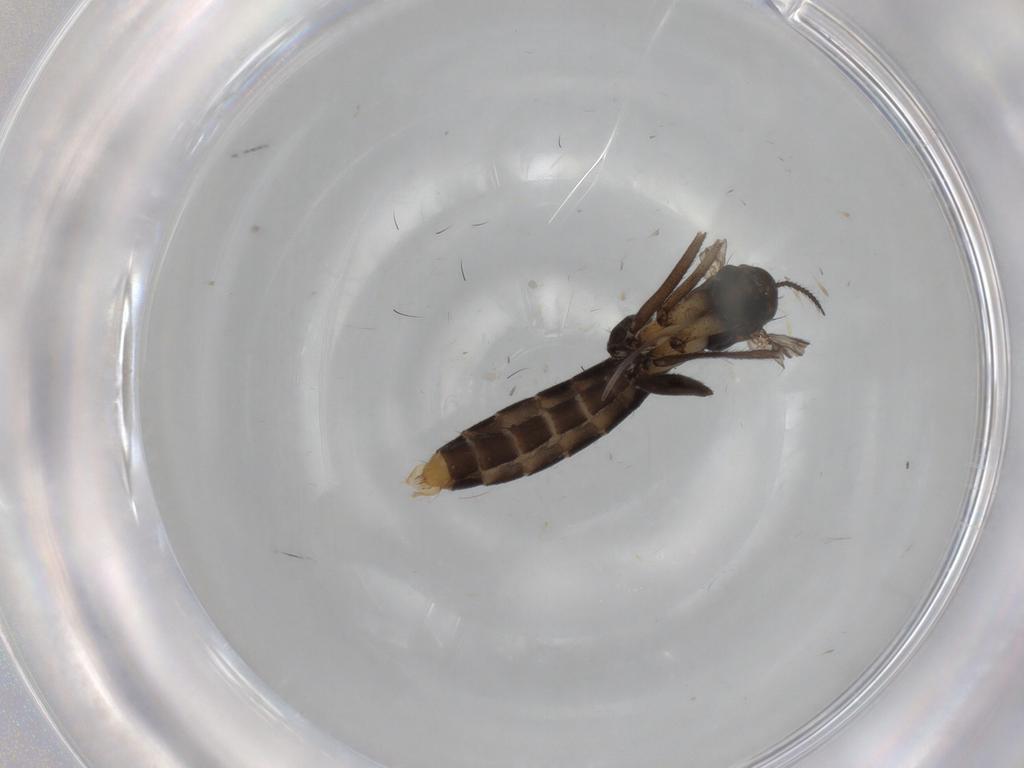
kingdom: Animalia
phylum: Arthropoda
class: Insecta
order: Diptera
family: Ditomyiidae
